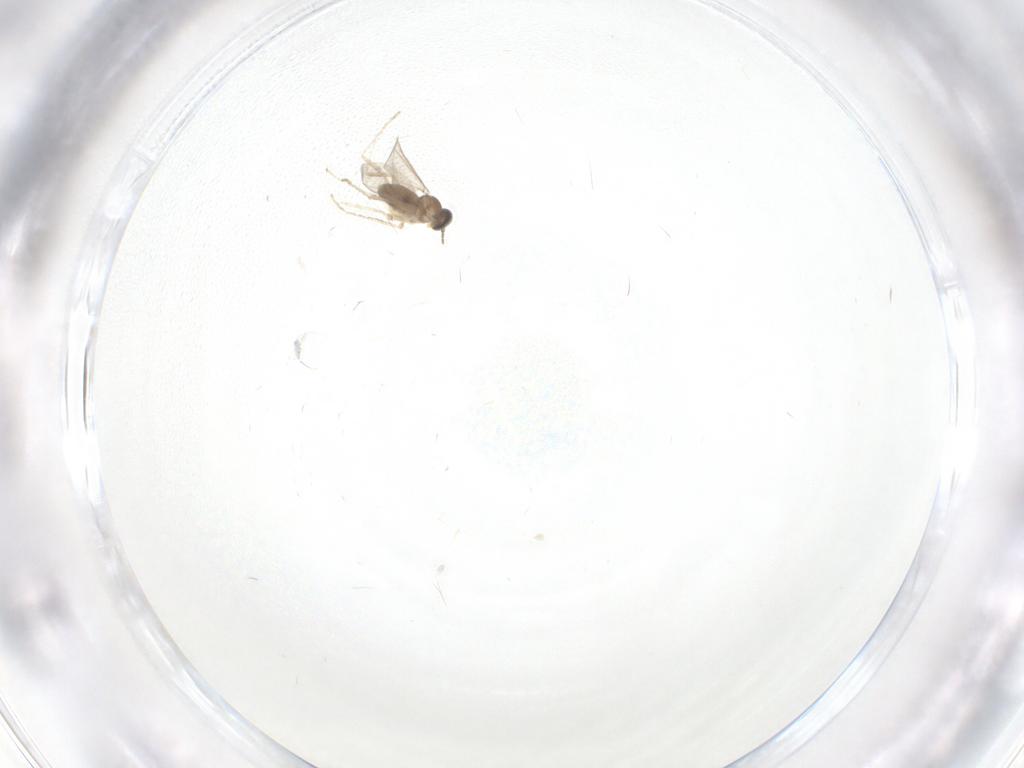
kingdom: Animalia
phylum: Arthropoda
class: Insecta
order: Diptera
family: Cecidomyiidae
